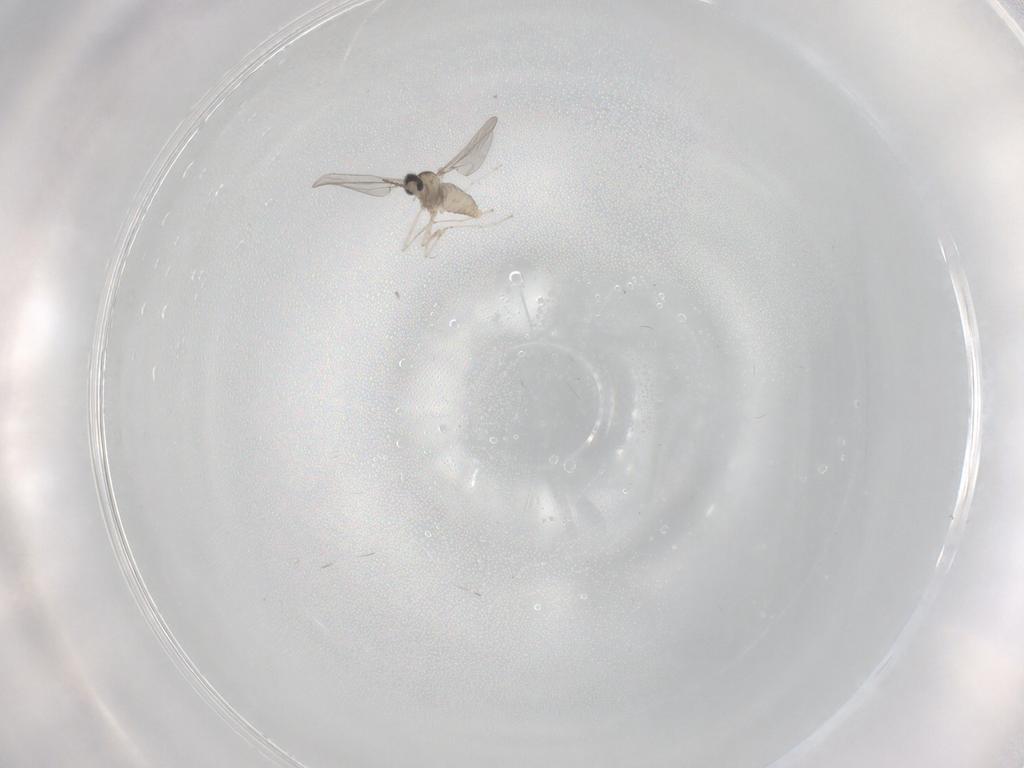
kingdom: Animalia
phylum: Arthropoda
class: Insecta
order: Diptera
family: Cecidomyiidae
